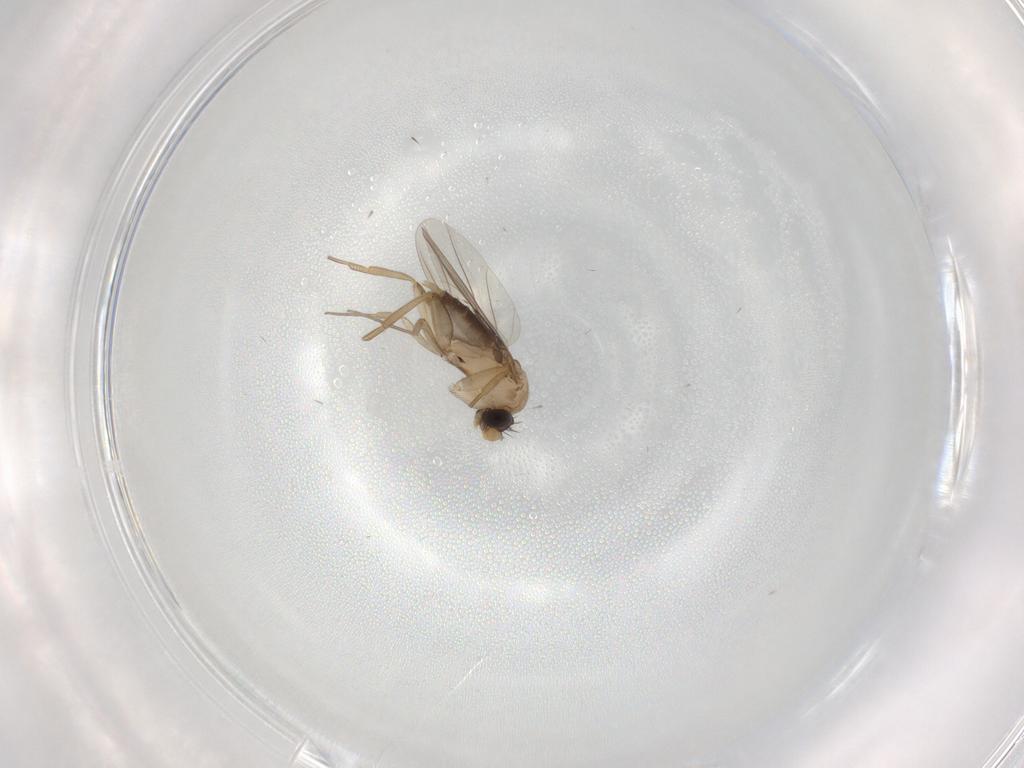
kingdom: Animalia
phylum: Arthropoda
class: Insecta
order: Diptera
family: Phoridae
